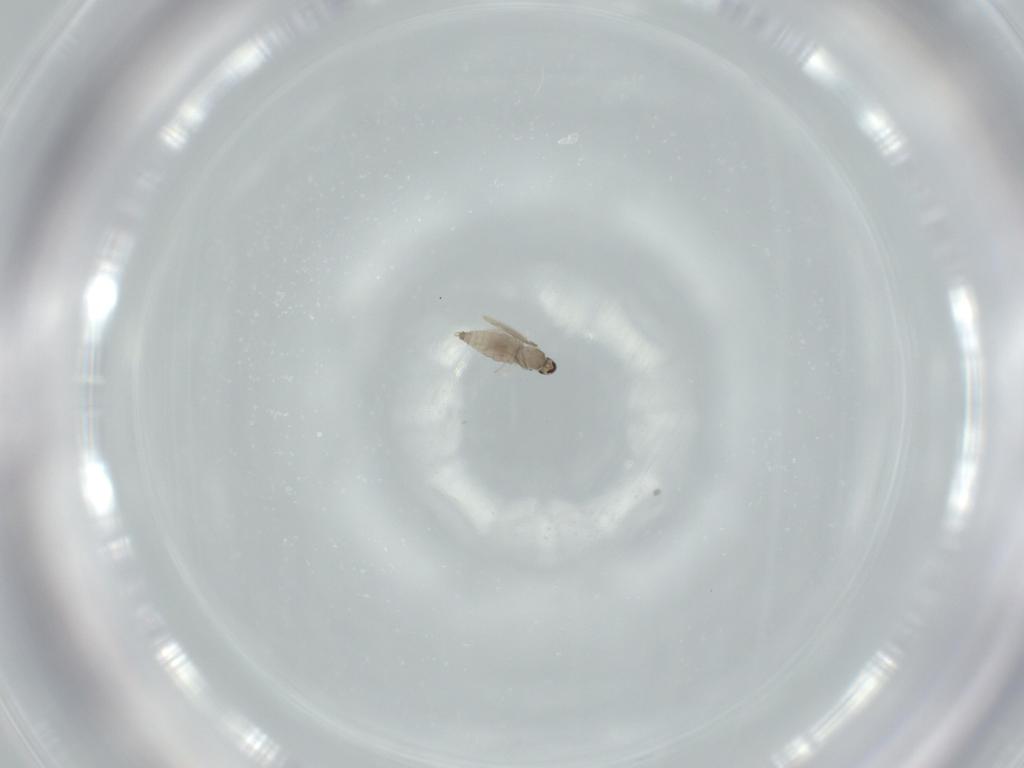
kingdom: Animalia
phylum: Arthropoda
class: Insecta
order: Diptera
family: Cecidomyiidae
